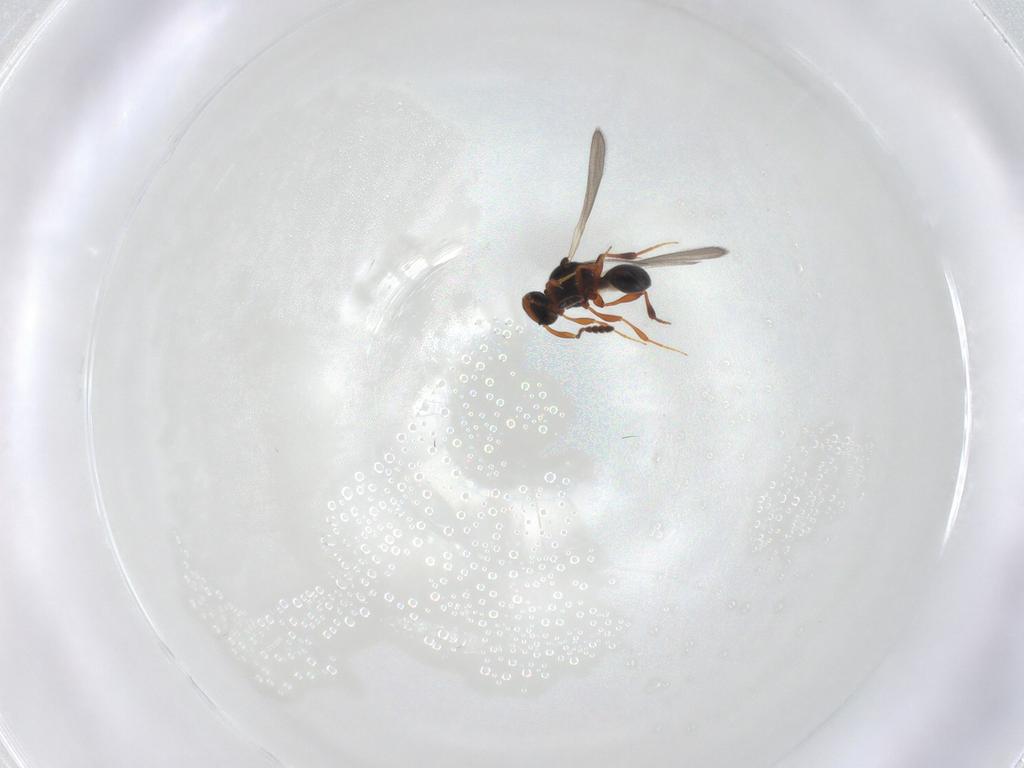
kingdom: Animalia
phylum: Arthropoda
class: Insecta
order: Hymenoptera
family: Platygastridae
